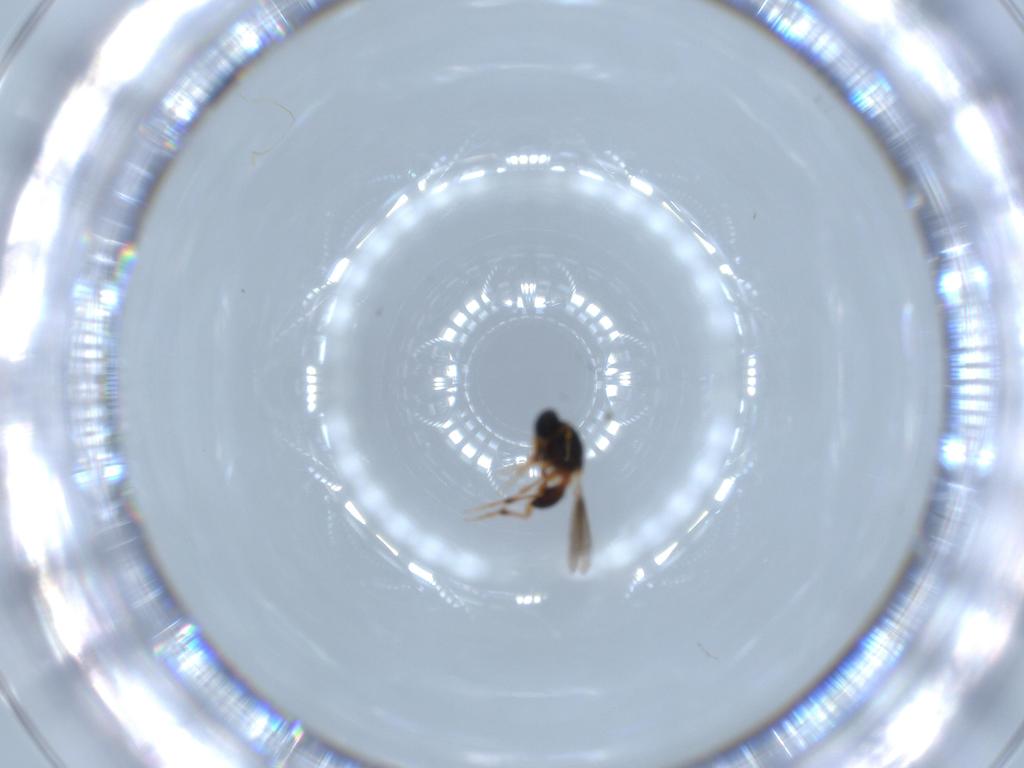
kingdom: Animalia
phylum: Arthropoda
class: Insecta
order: Hymenoptera
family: Platygastridae
